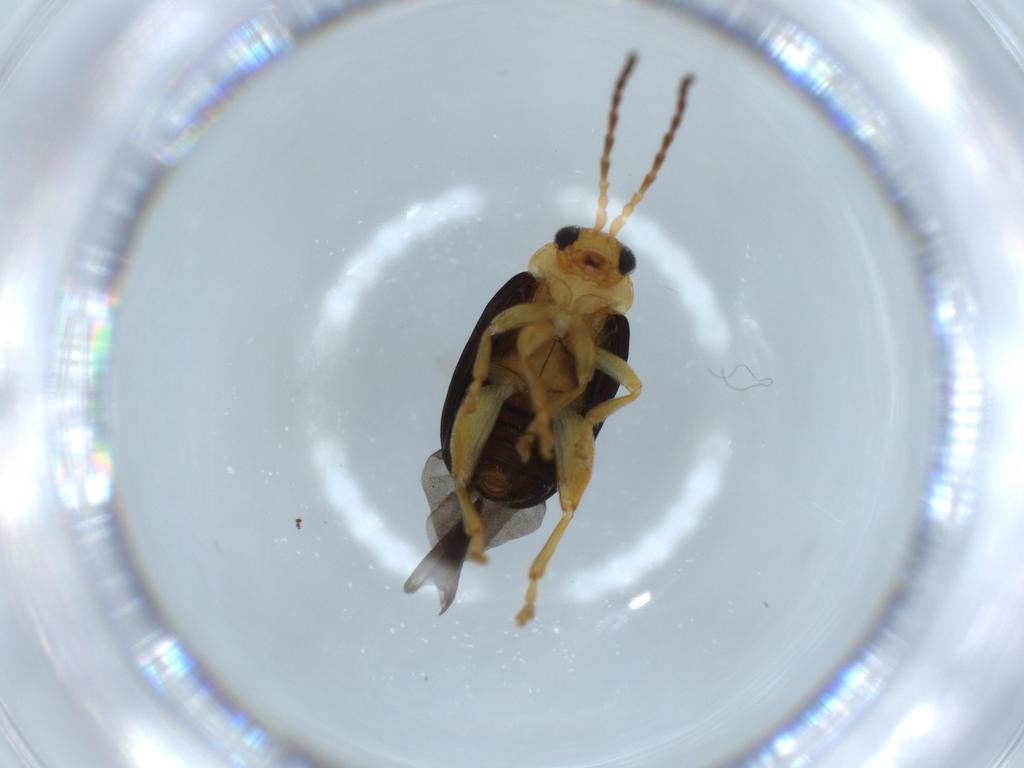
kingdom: Animalia
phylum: Arthropoda
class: Insecta
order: Coleoptera
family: Chrysomelidae
